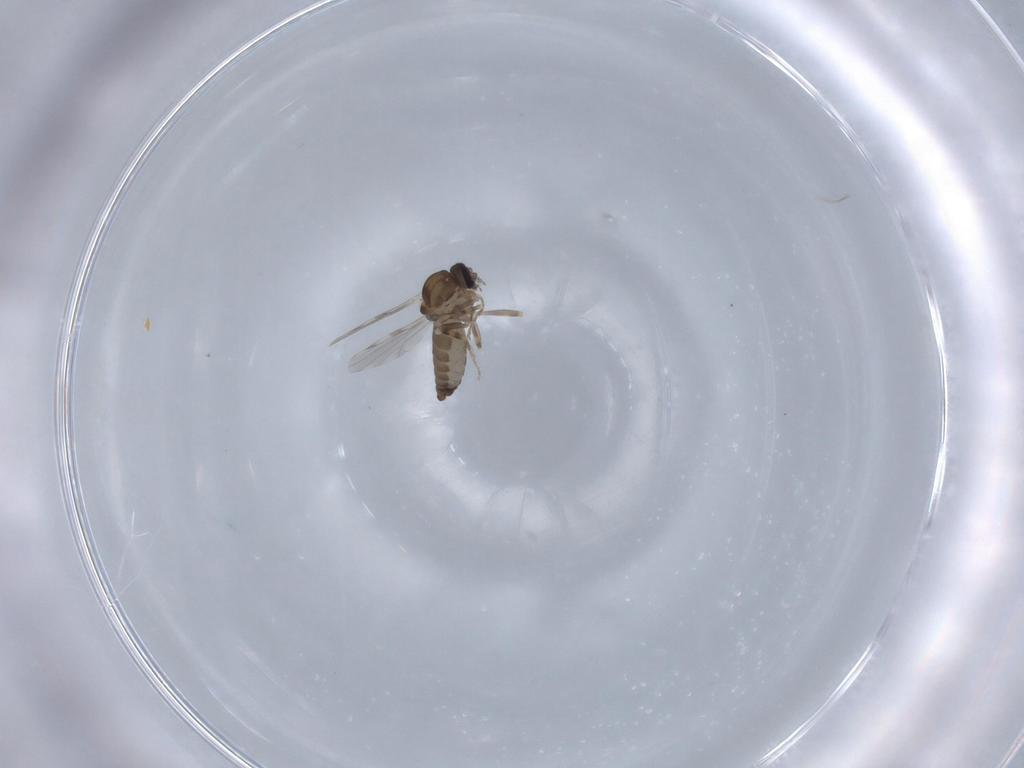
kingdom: Animalia
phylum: Arthropoda
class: Insecta
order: Diptera
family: Ceratopogonidae
